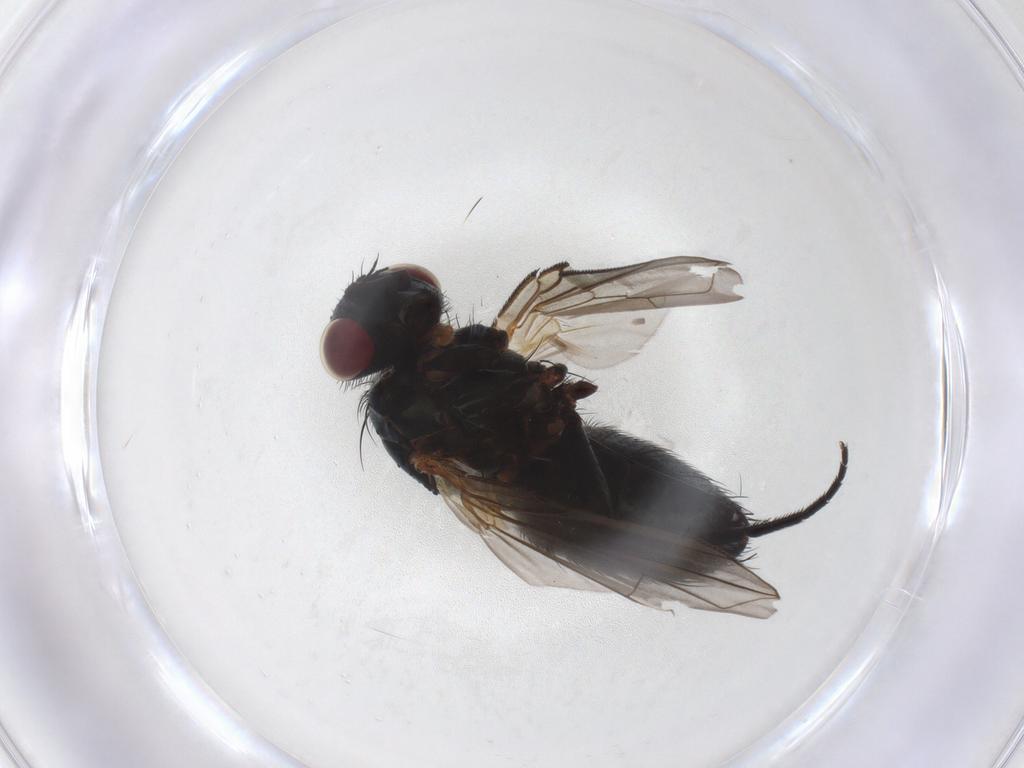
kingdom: Animalia
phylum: Arthropoda
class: Insecta
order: Diptera
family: Tachinidae
